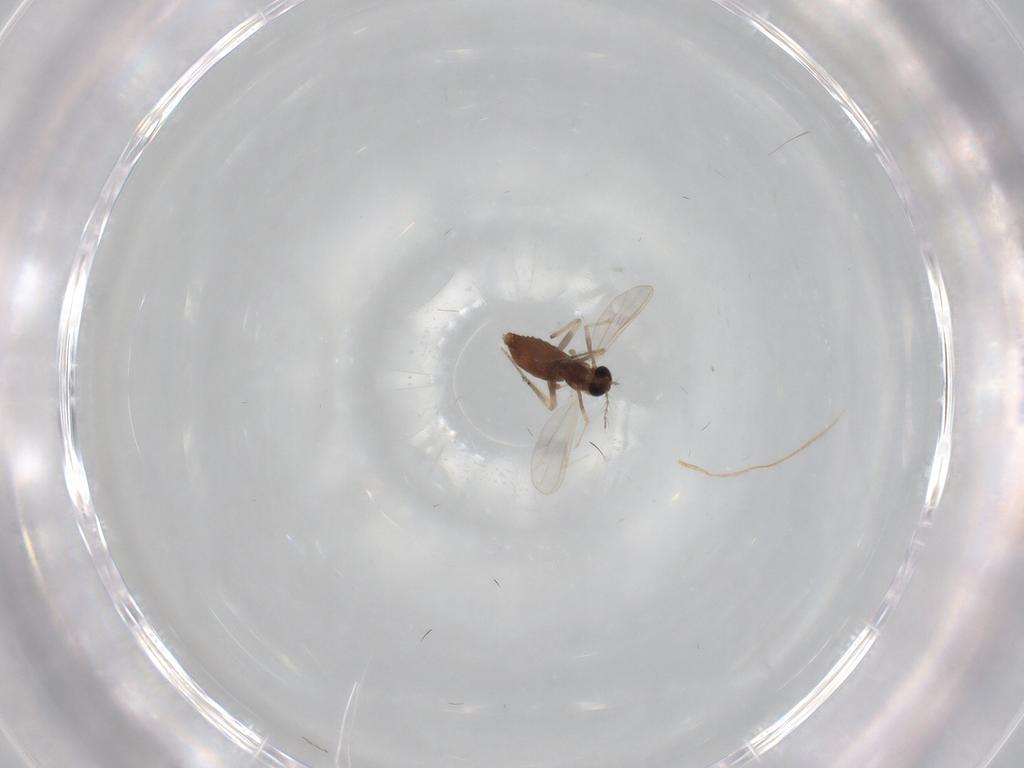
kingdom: Animalia
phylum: Arthropoda
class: Insecta
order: Diptera
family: Chironomidae
